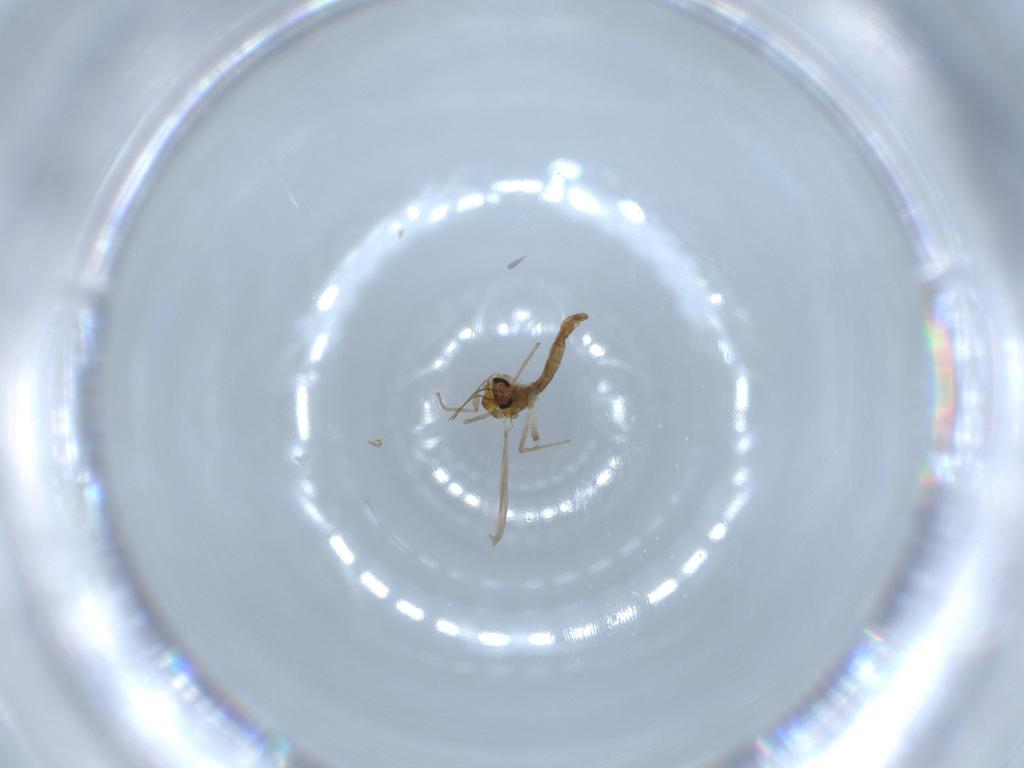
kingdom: Animalia
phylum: Arthropoda
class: Insecta
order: Diptera
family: Chironomidae
